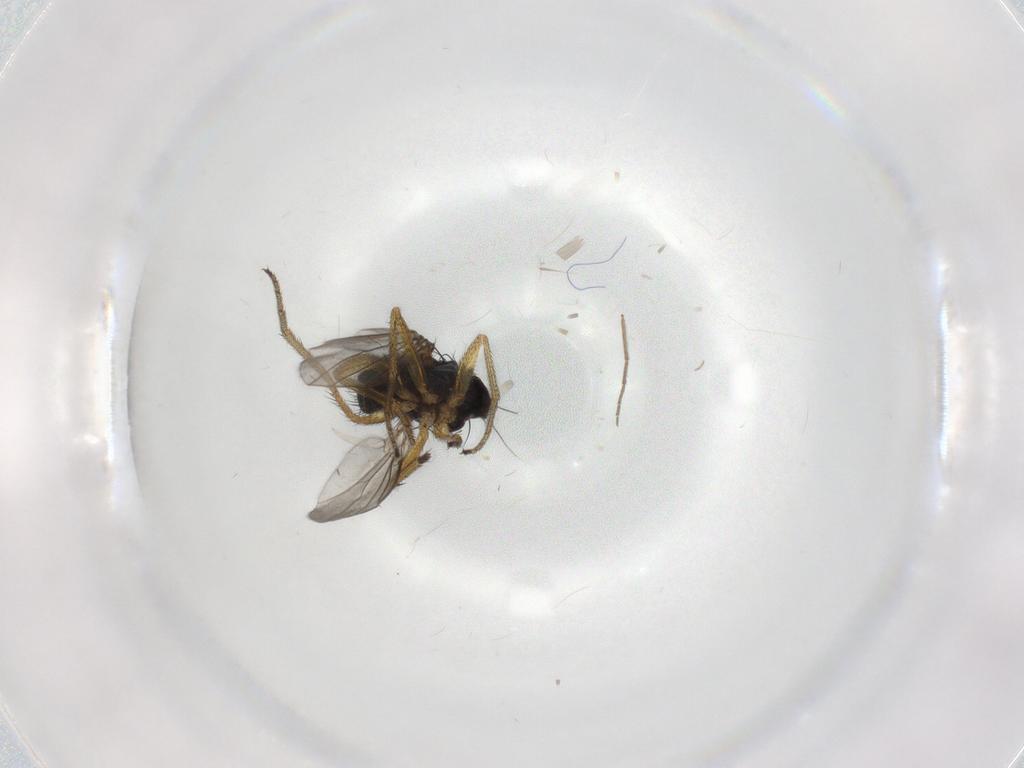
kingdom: Animalia
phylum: Arthropoda
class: Insecta
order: Diptera
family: Dolichopodidae
